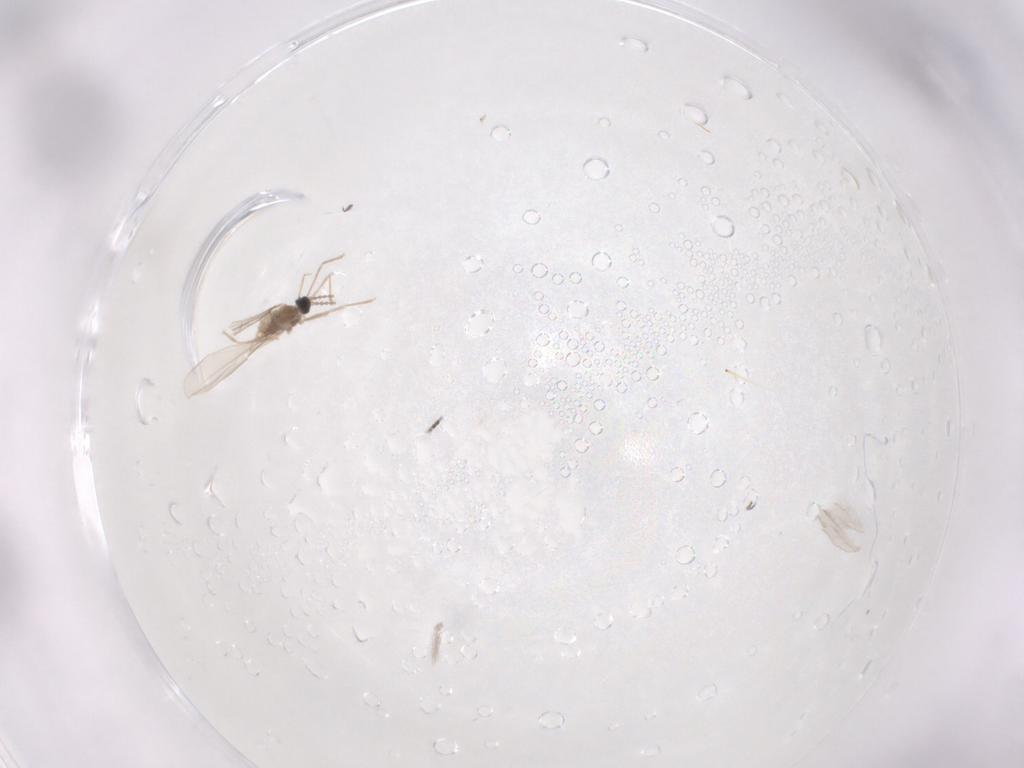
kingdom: Animalia
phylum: Arthropoda
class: Insecta
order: Diptera
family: Cecidomyiidae
